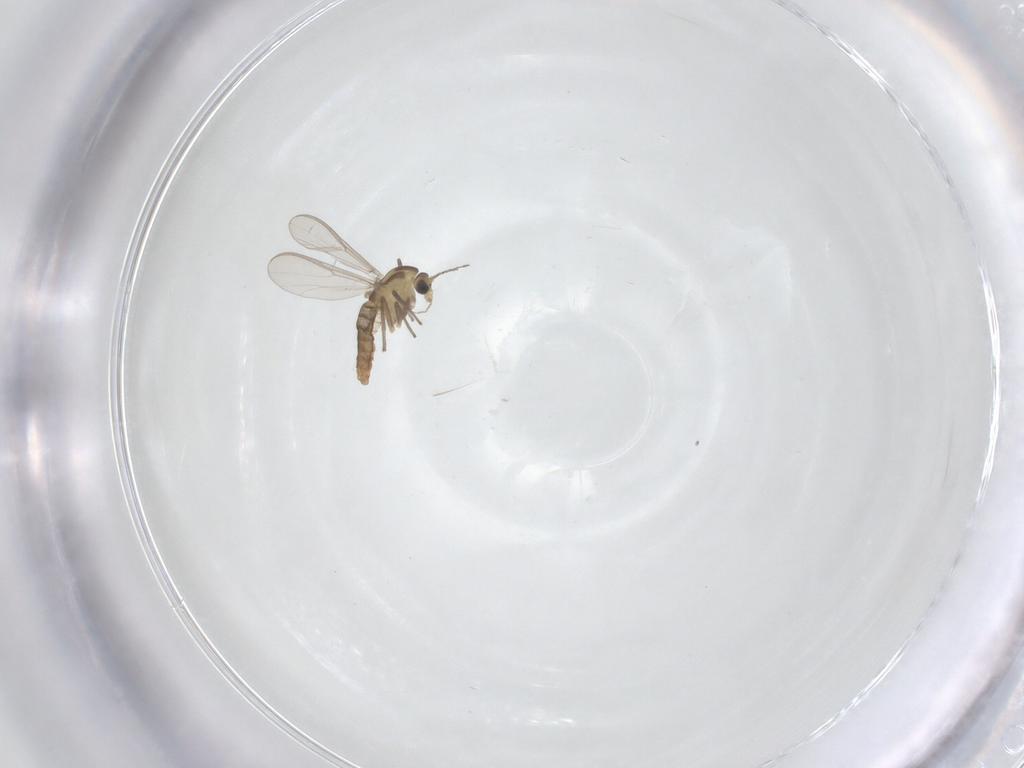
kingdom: Animalia
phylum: Arthropoda
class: Insecta
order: Diptera
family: Chironomidae
